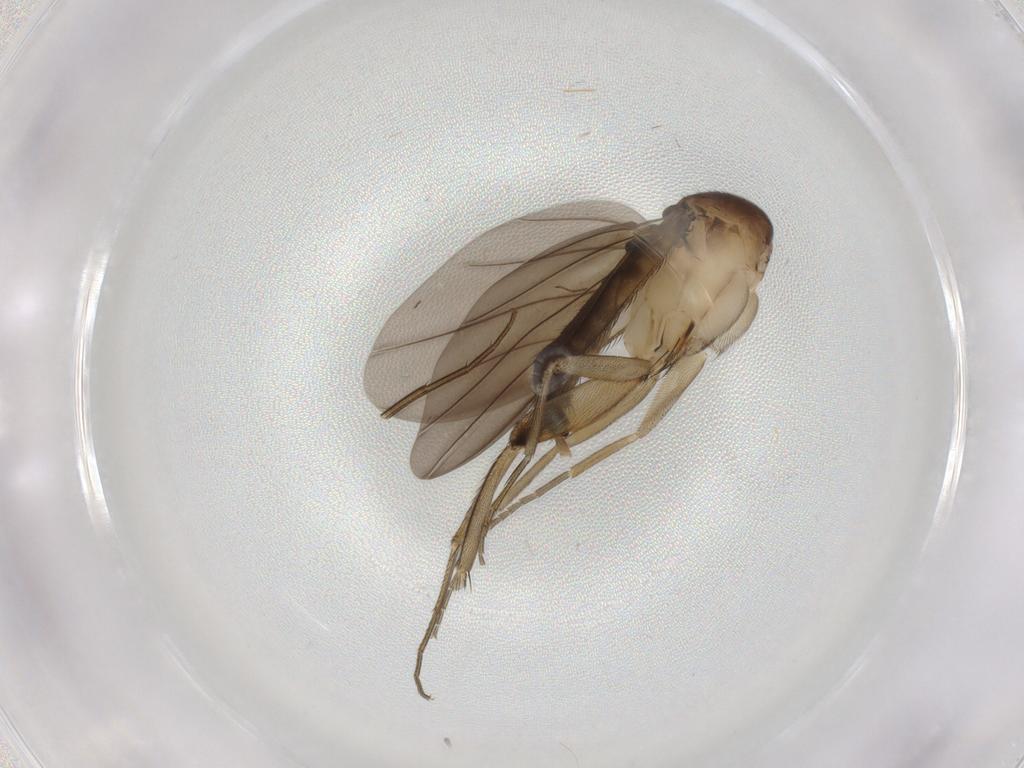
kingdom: Animalia
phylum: Arthropoda
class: Insecta
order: Diptera
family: Phoridae
